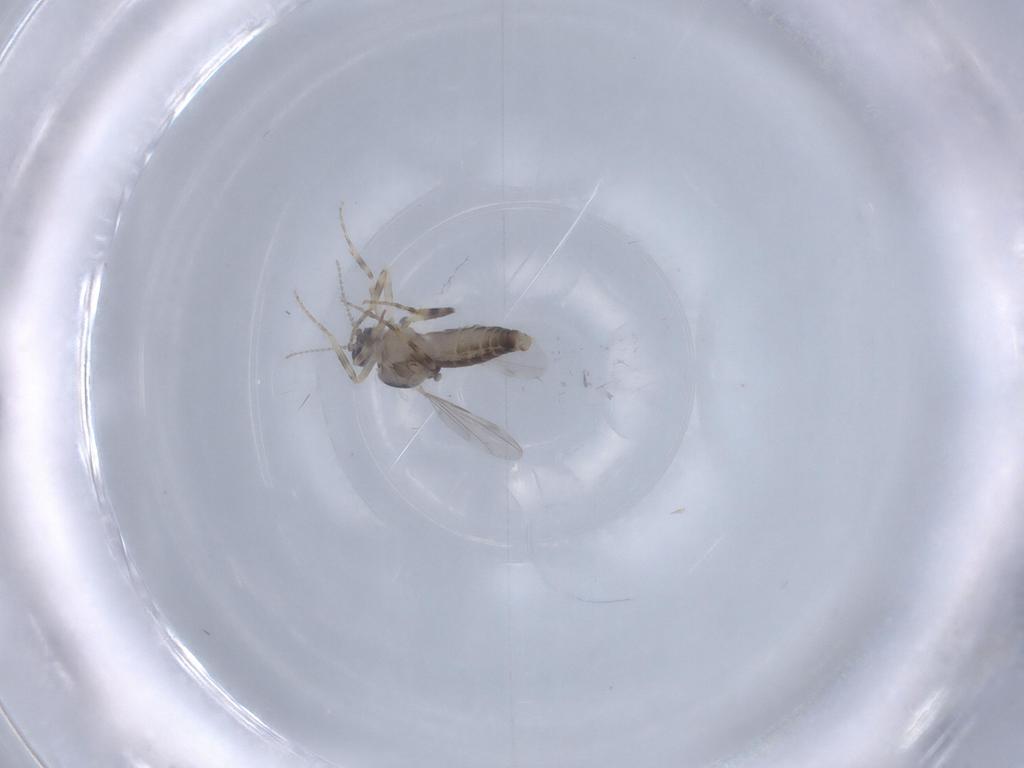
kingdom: Animalia
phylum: Arthropoda
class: Insecta
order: Diptera
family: Ceratopogonidae
